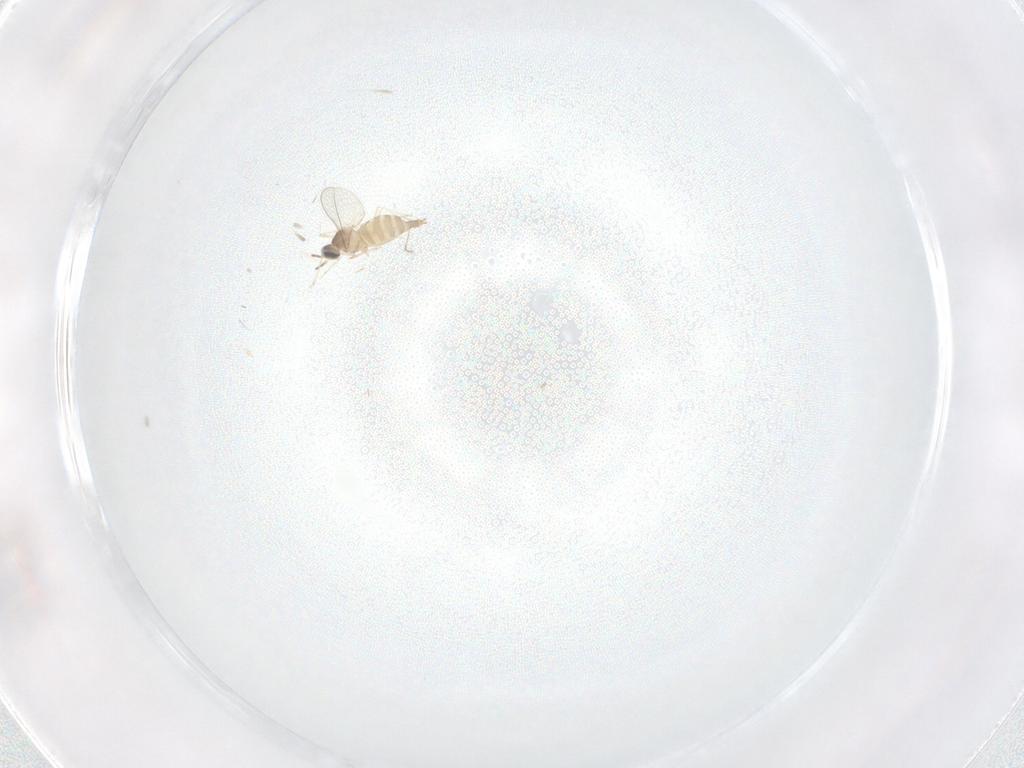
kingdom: Animalia
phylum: Arthropoda
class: Insecta
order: Diptera
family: Cecidomyiidae
